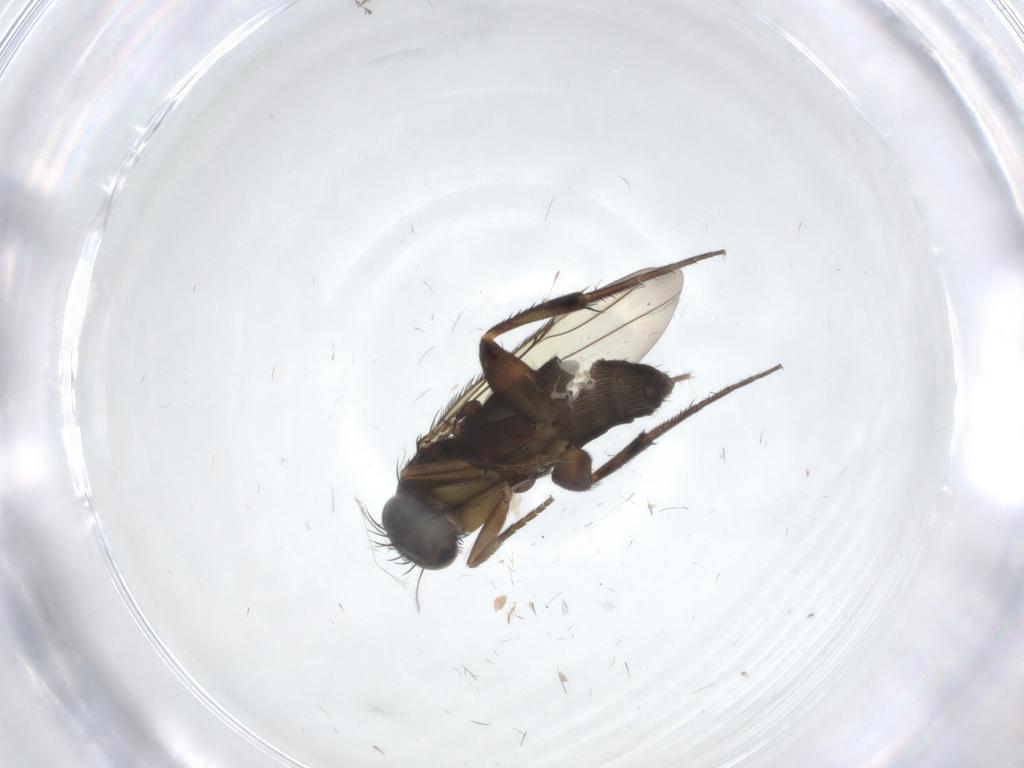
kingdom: Animalia
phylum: Arthropoda
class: Insecta
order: Diptera
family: Phoridae
